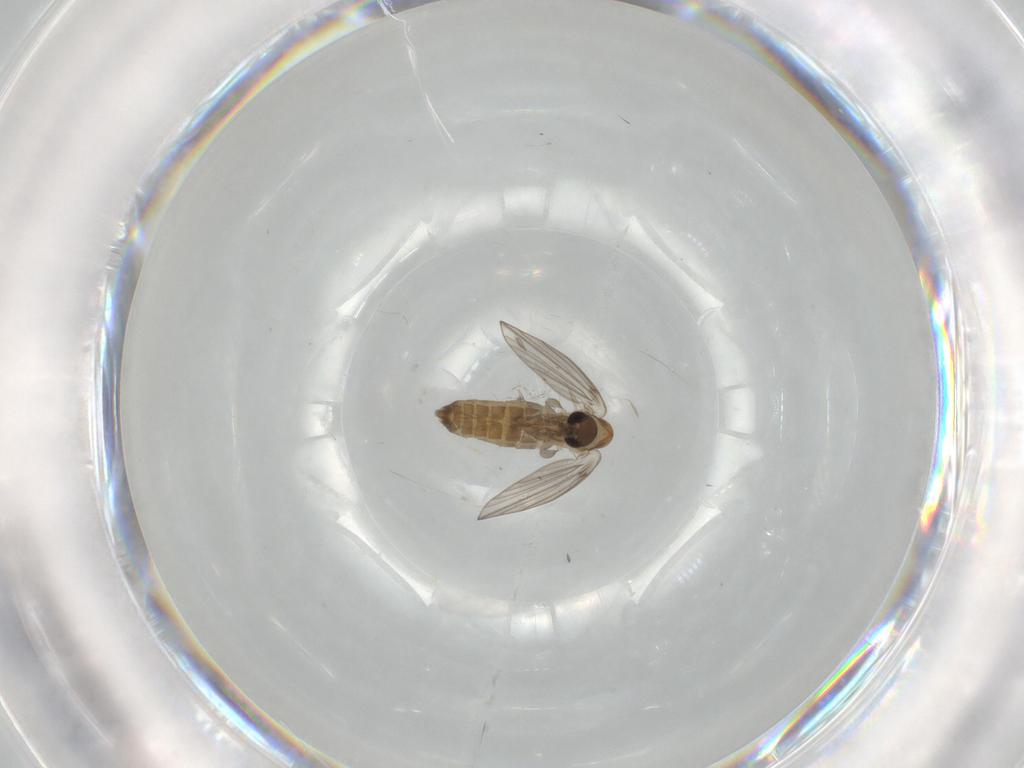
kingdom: Animalia
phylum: Arthropoda
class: Insecta
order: Diptera
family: Tabanidae
